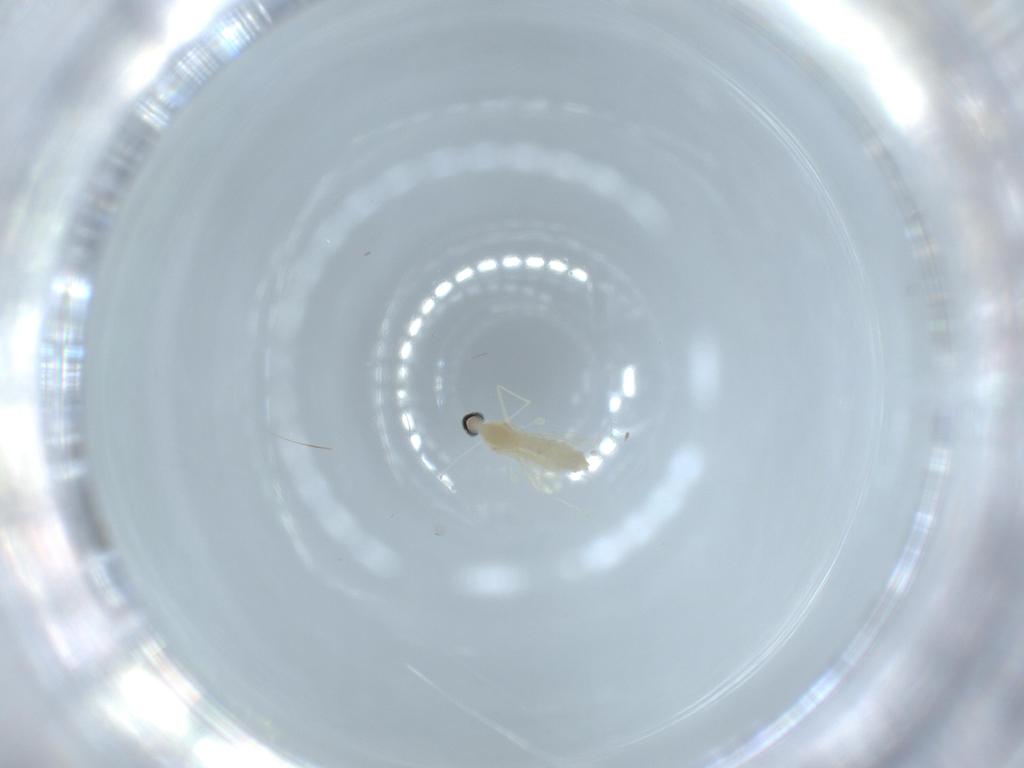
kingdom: Animalia
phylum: Arthropoda
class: Insecta
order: Diptera
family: Cecidomyiidae
